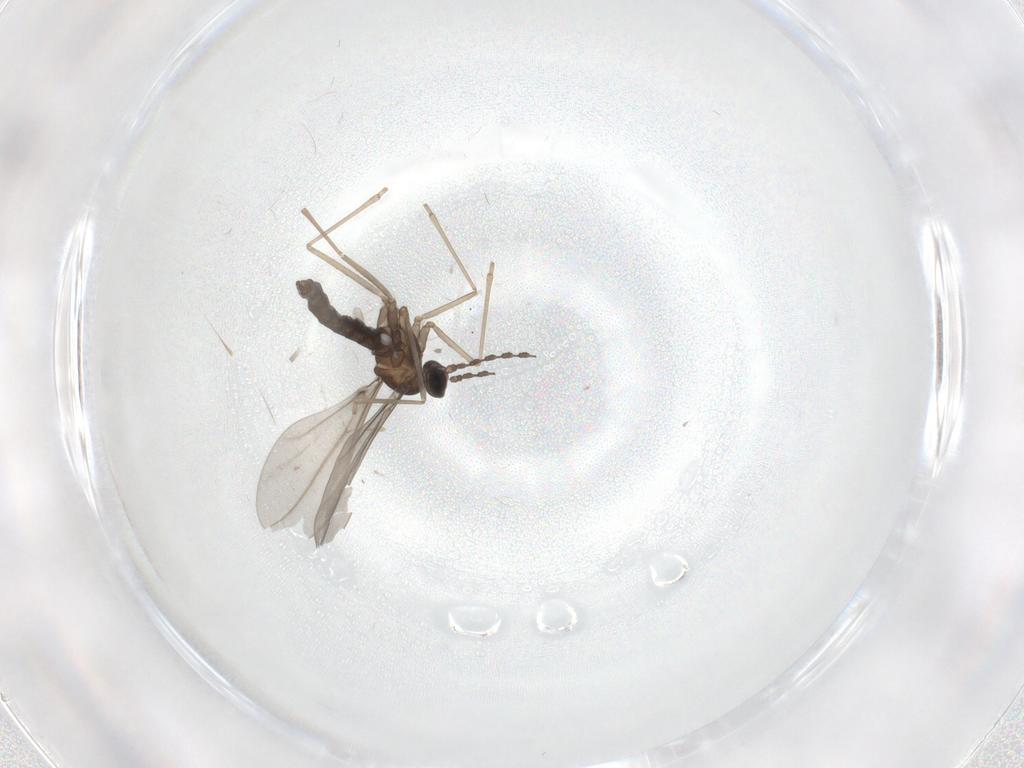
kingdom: Animalia
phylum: Arthropoda
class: Insecta
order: Diptera
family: Cecidomyiidae
